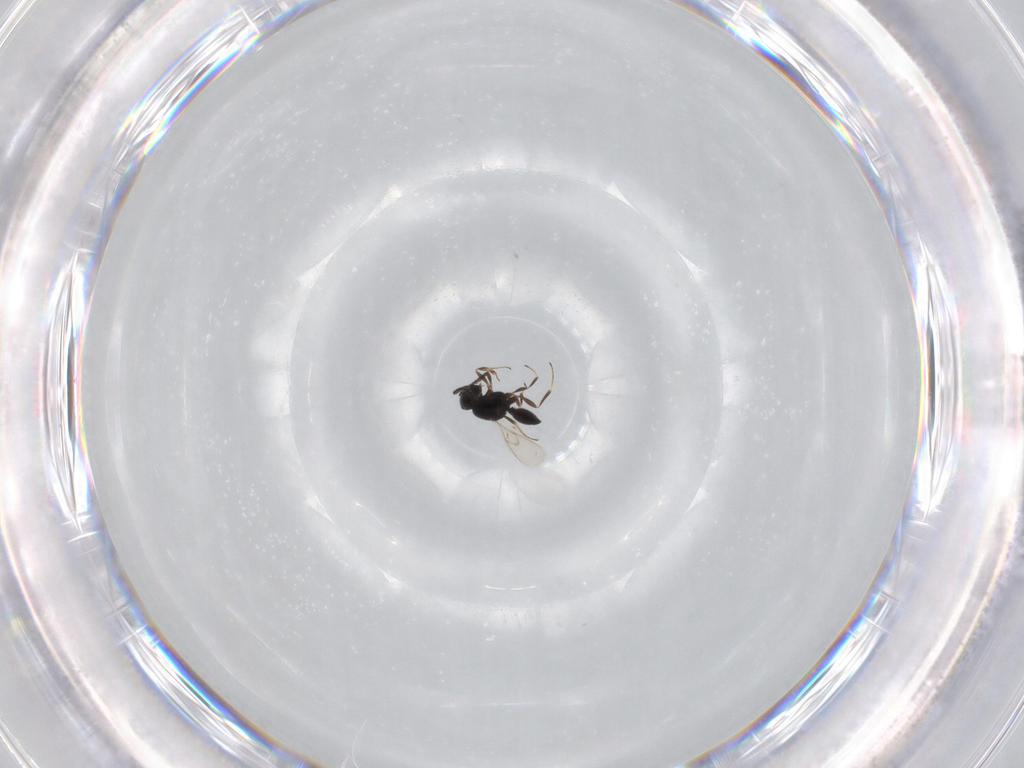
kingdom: Animalia
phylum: Arthropoda
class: Insecta
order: Hymenoptera
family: Scelionidae
